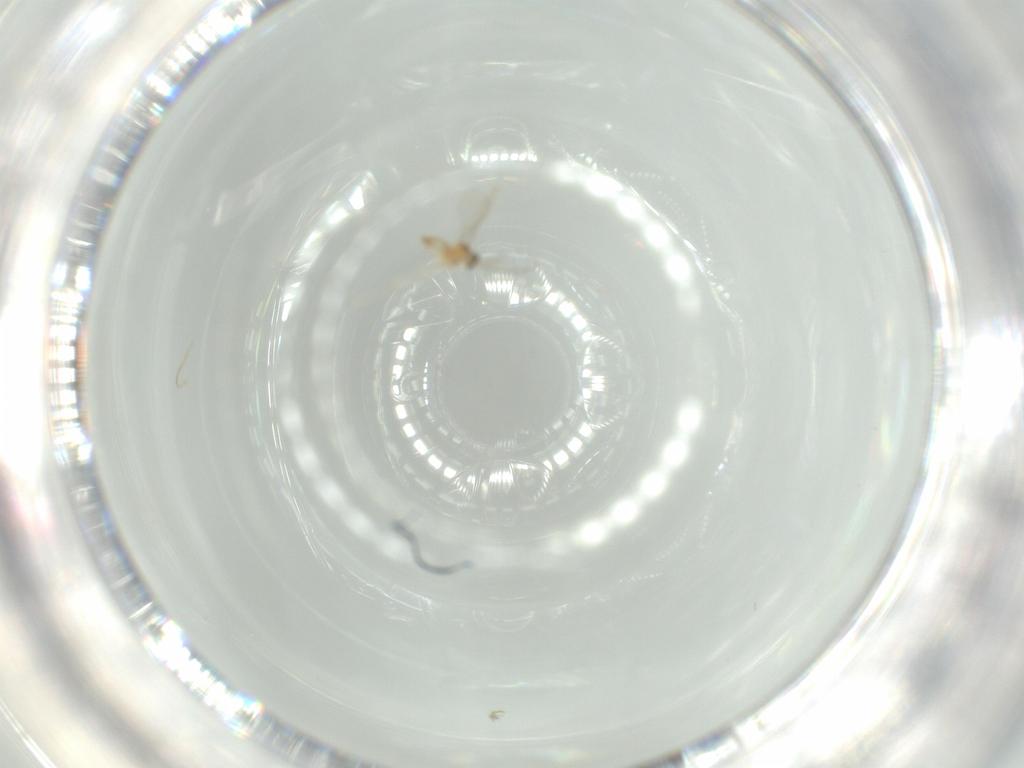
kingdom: Animalia
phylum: Arthropoda
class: Insecta
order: Diptera
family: Cecidomyiidae
